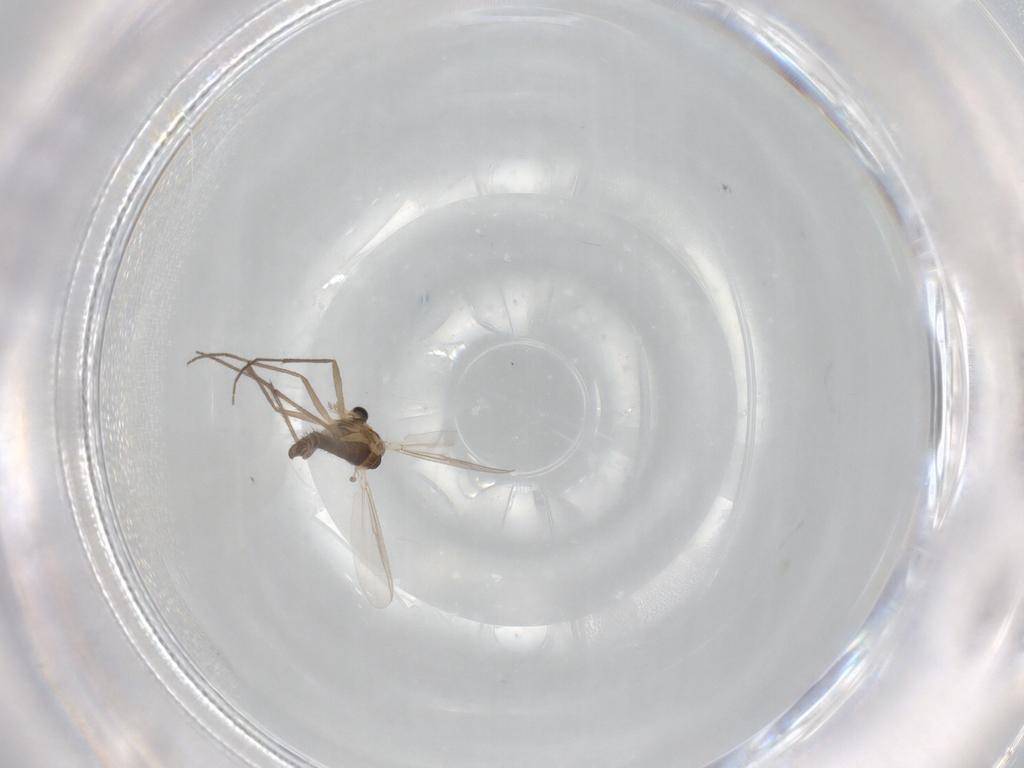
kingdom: Animalia
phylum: Arthropoda
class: Insecta
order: Diptera
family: Chironomidae
